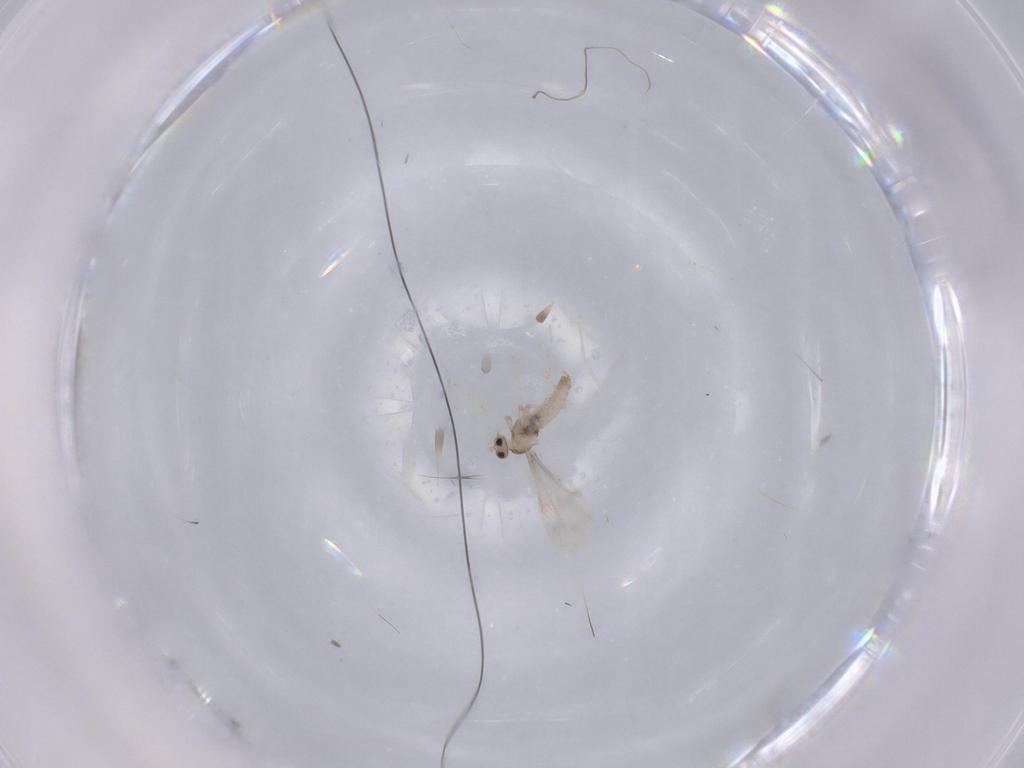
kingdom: Animalia
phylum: Arthropoda
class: Insecta
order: Diptera
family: Cecidomyiidae
